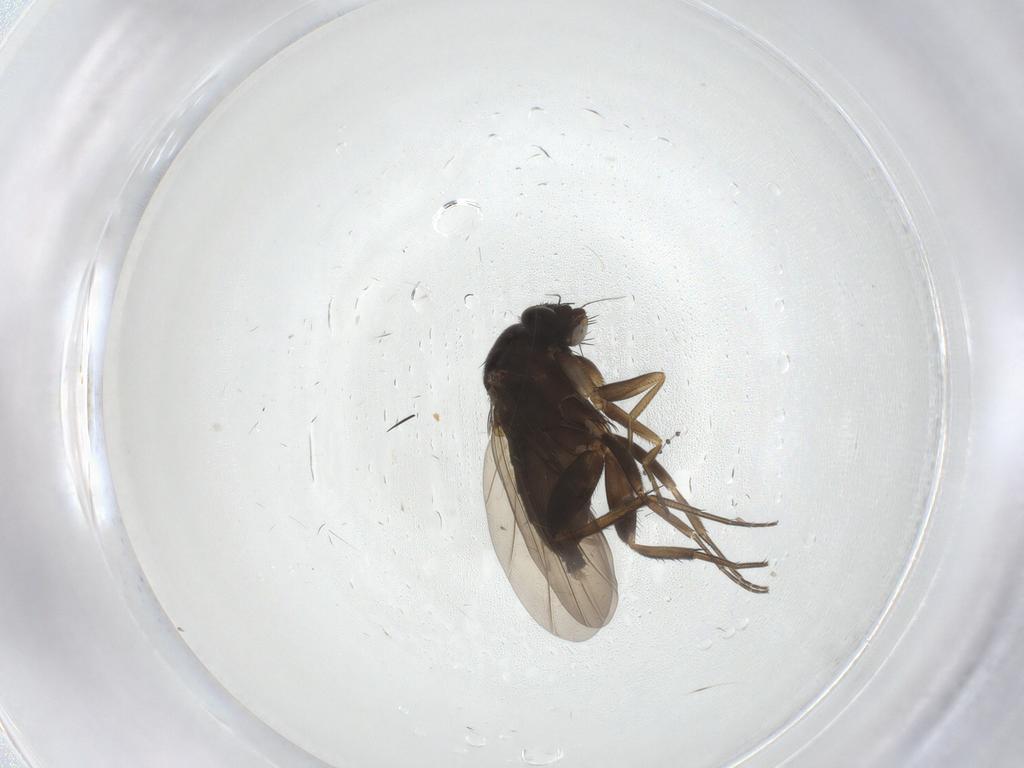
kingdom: Animalia
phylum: Arthropoda
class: Insecta
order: Diptera
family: Phoridae
